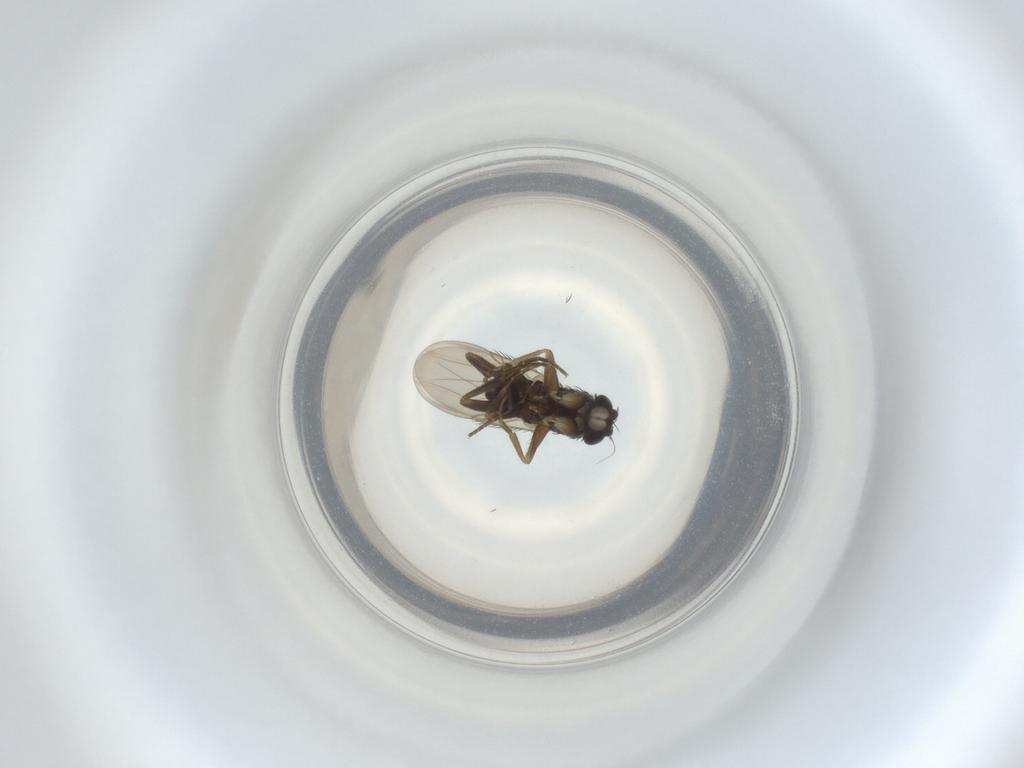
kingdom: Animalia
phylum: Arthropoda
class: Insecta
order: Diptera
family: Phoridae
